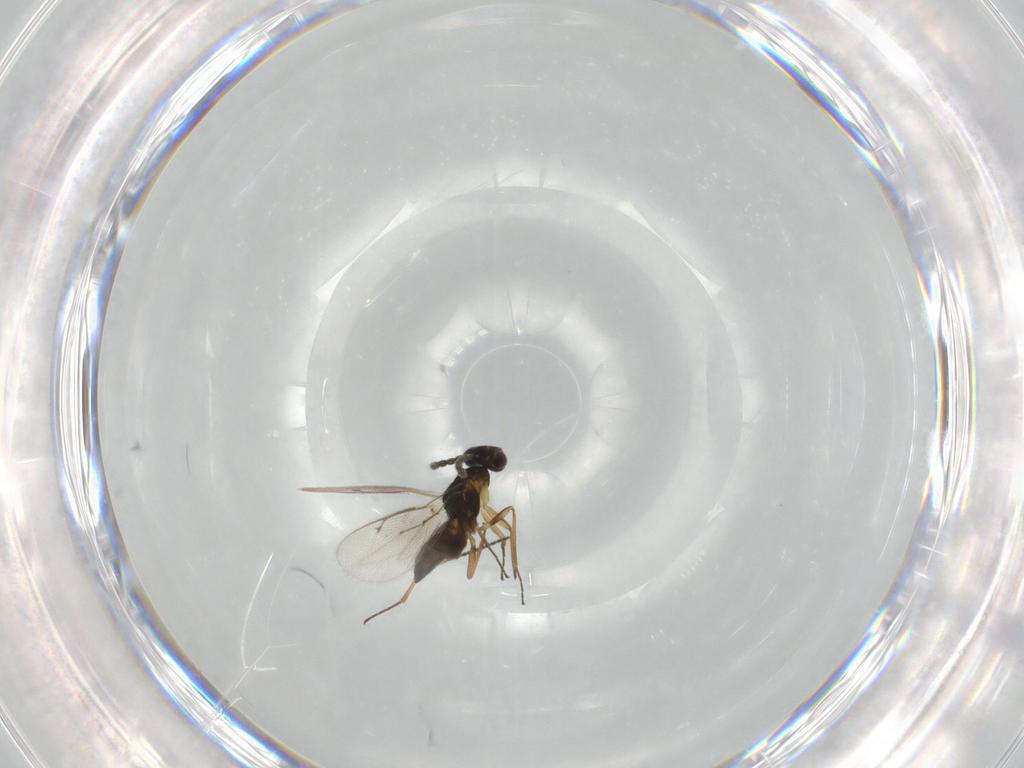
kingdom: Animalia
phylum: Arthropoda
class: Insecta
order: Hymenoptera
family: Eulophidae
